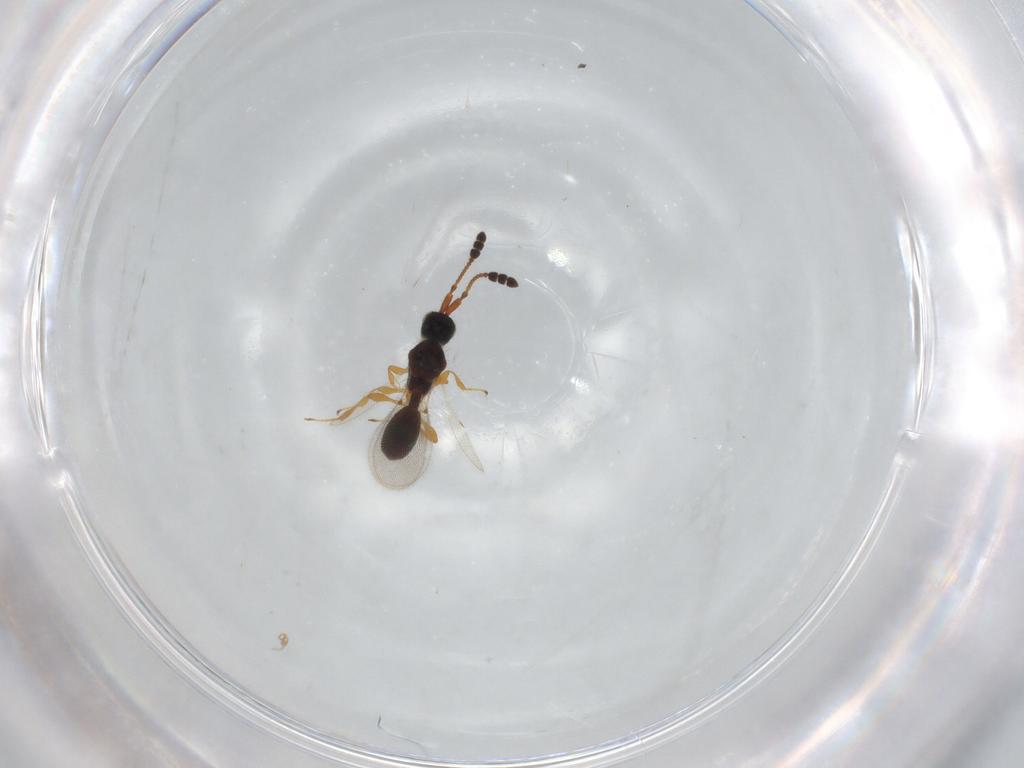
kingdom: Animalia
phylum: Arthropoda
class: Insecta
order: Hymenoptera
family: Diapriidae
